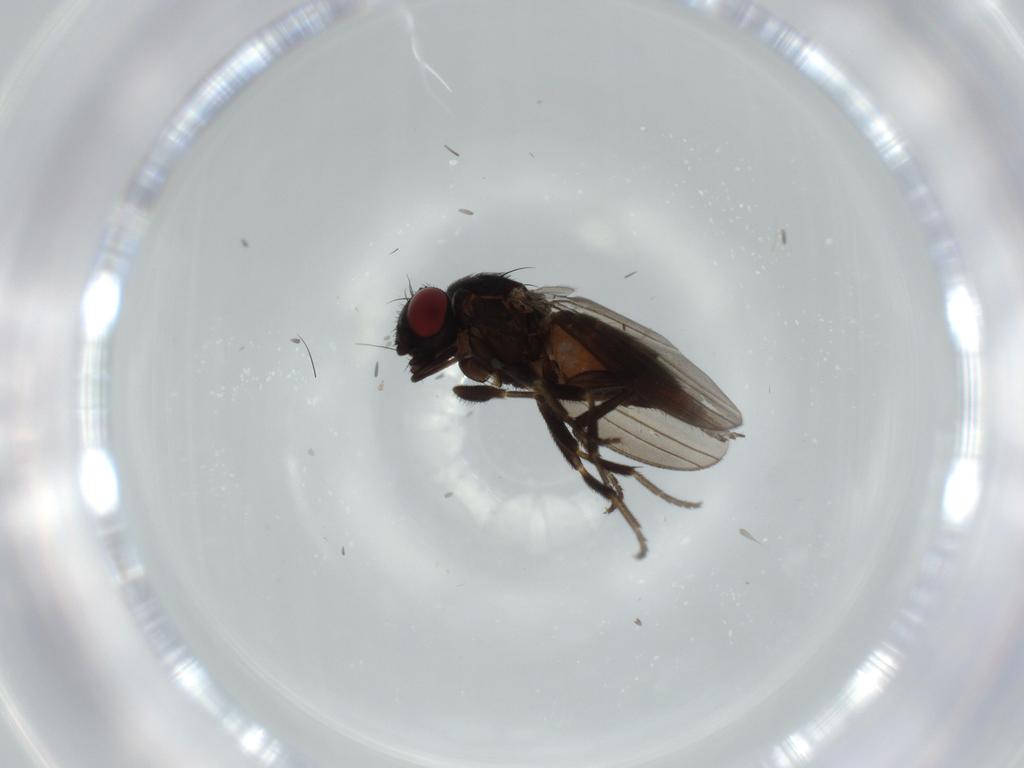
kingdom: Animalia
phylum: Arthropoda
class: Insecta
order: Diptera
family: Milichiidae
